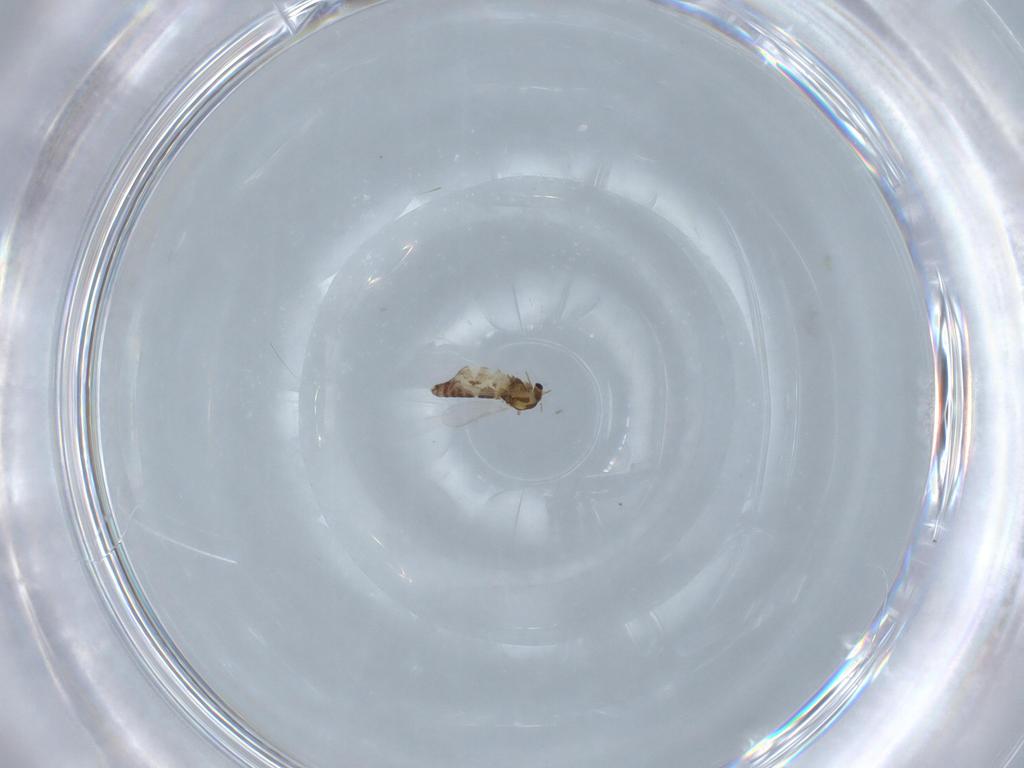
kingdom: Animalia
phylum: Arthropoda
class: Insecta
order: Diptera
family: Chironomidae
